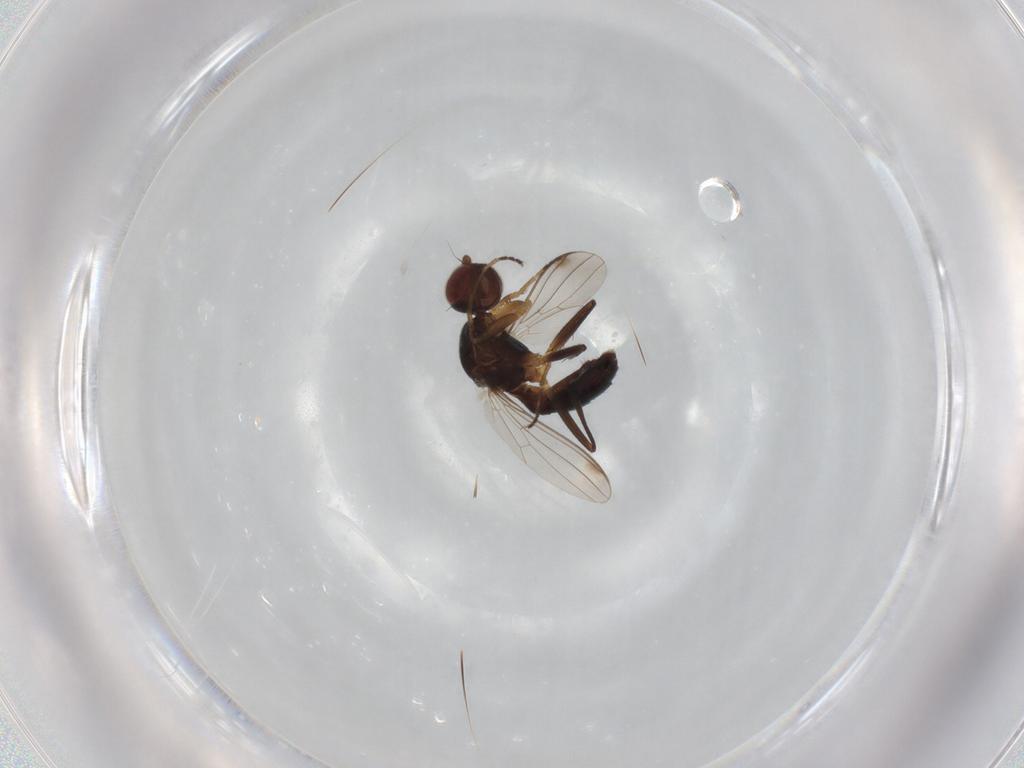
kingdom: Animalia
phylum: Arthropoda
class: Insecta
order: Diptera
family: Sepsidae
